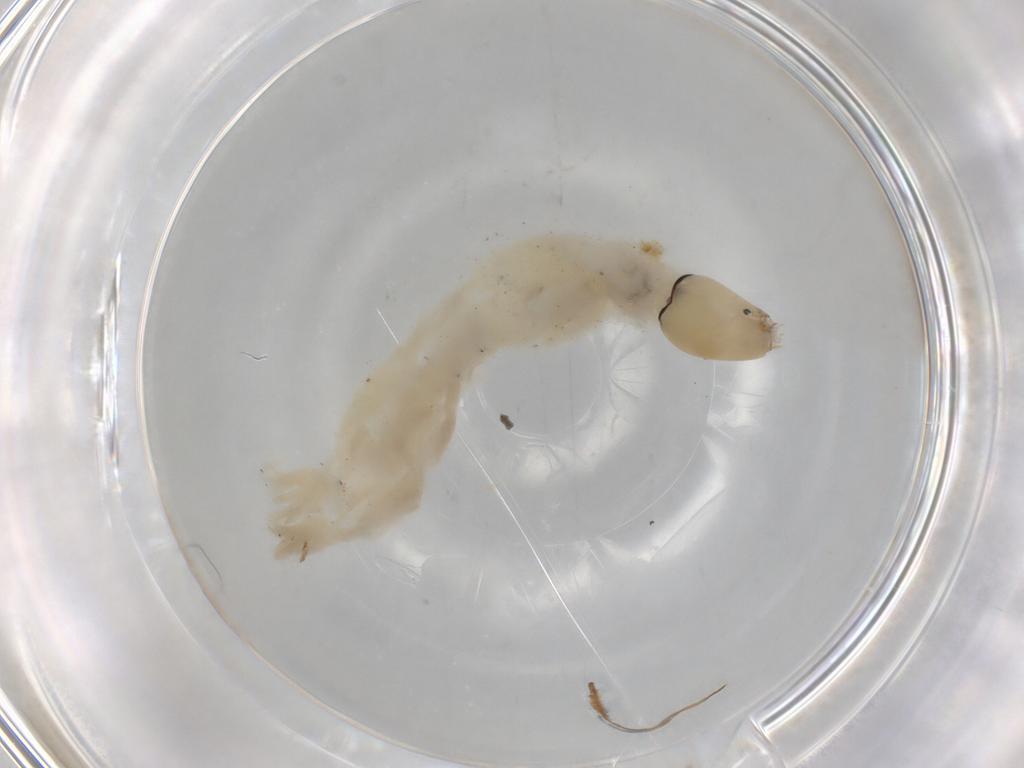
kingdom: Animalia
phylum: Arthropoda
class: Insecta
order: Diptera
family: Chironomidae
